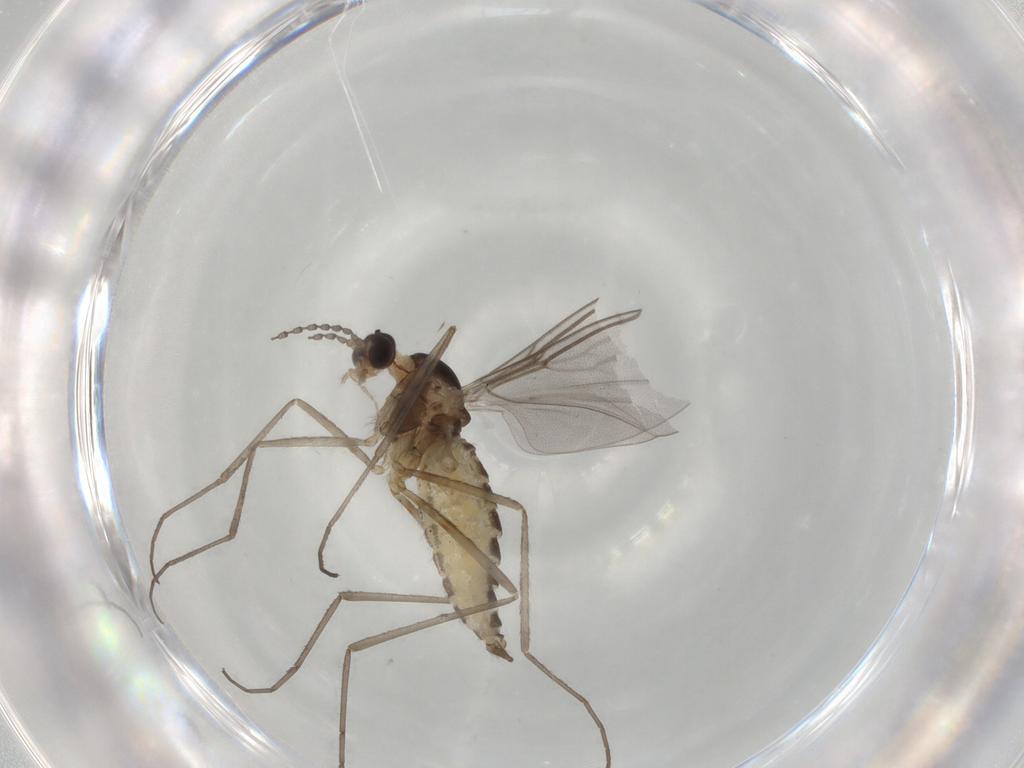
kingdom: Animalia
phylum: Arthropoda
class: Insecta
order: Diptera
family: Cecidomyiidae
